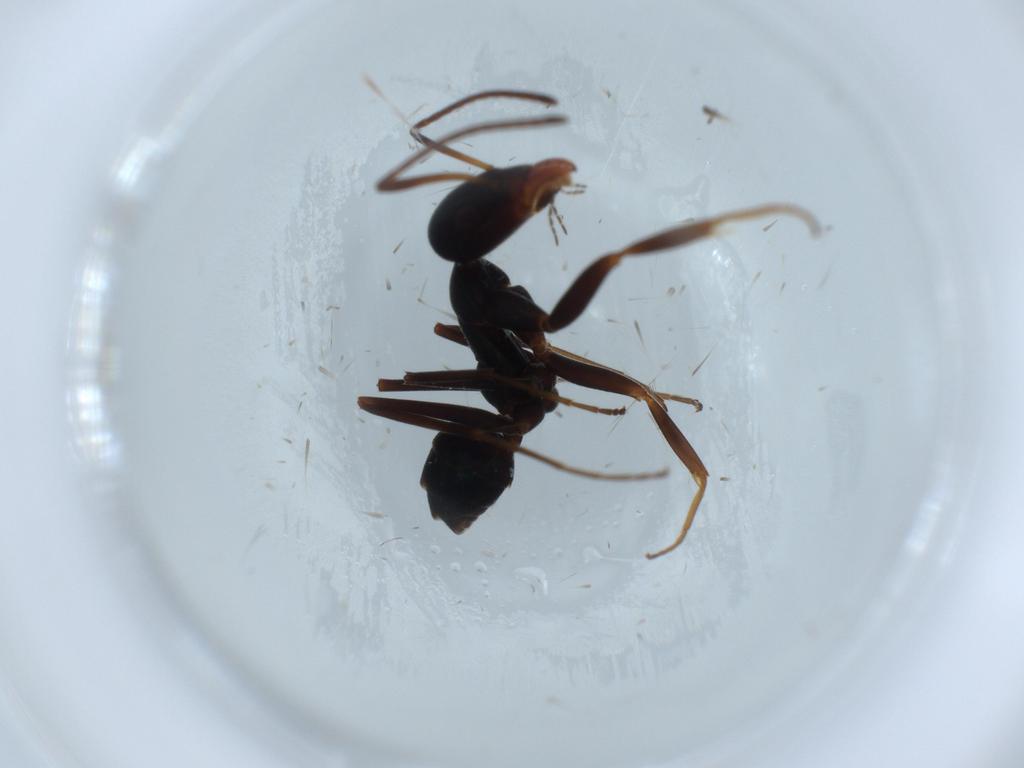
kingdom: Animalia
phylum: Arthropoda
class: Insecta
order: Hymenoptera
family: Formicidae
